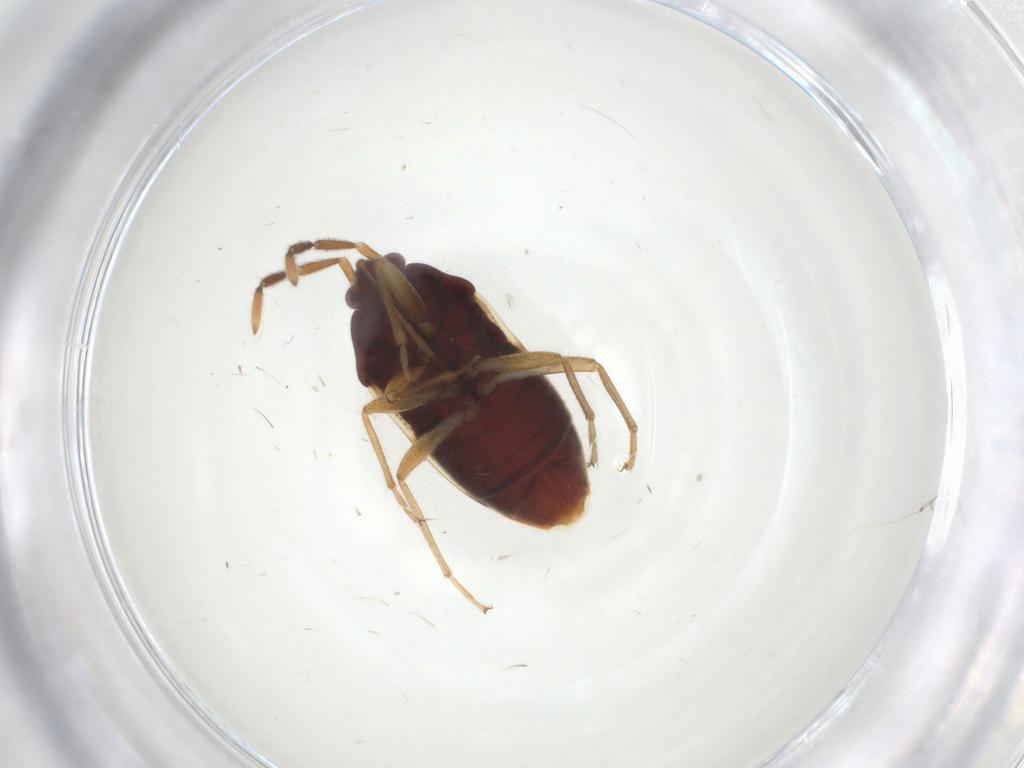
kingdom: Animalia
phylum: Arthropoda
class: Insecta
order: Hemiptera
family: Rhyparochromidae
